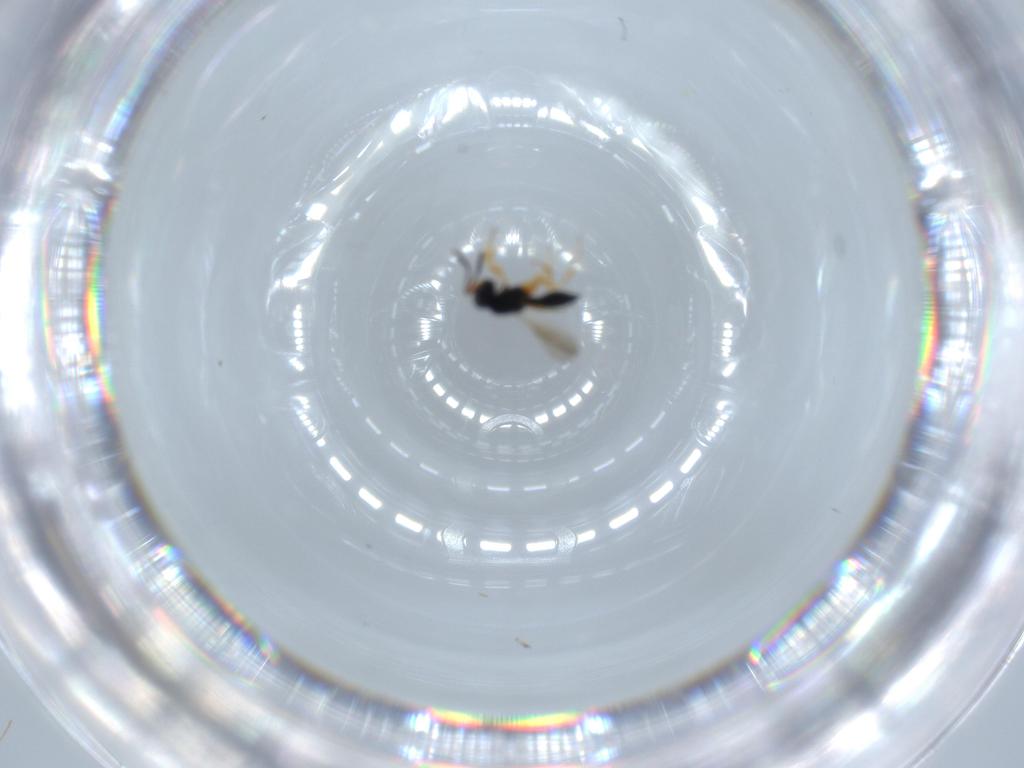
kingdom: Animalia
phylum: Arthropoda
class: Insecta
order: Hymenoptera
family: Scelionidae
